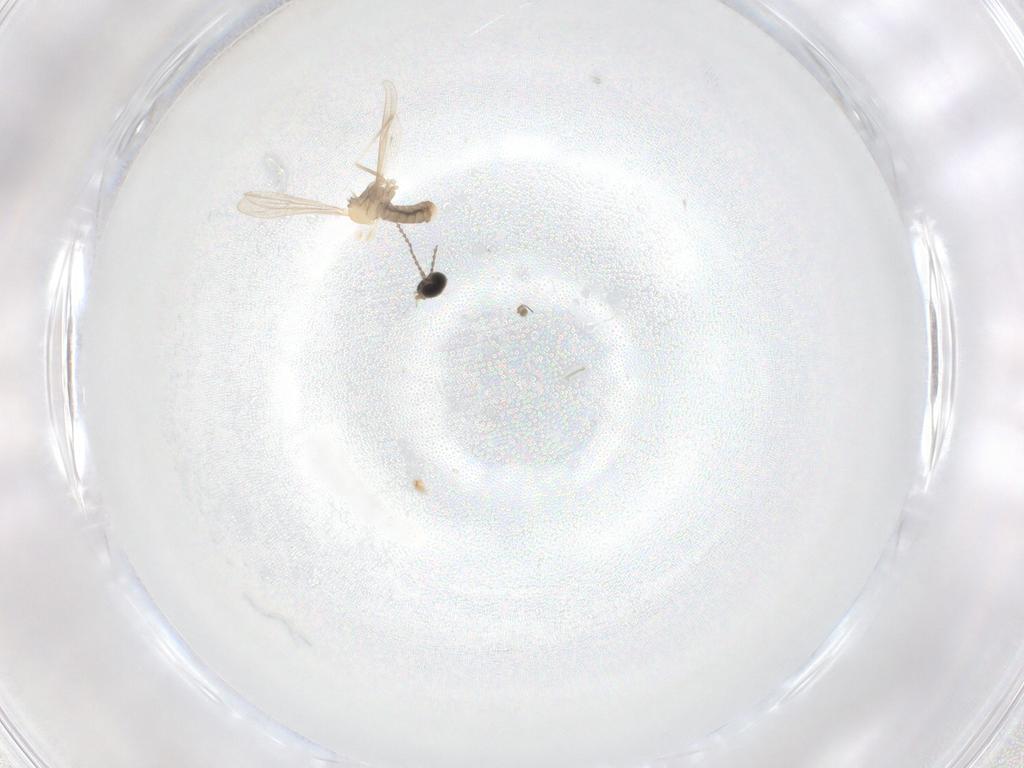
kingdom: Animalia
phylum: Arthropoda
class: Insecta
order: Diptera
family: Cecidomyiidae
